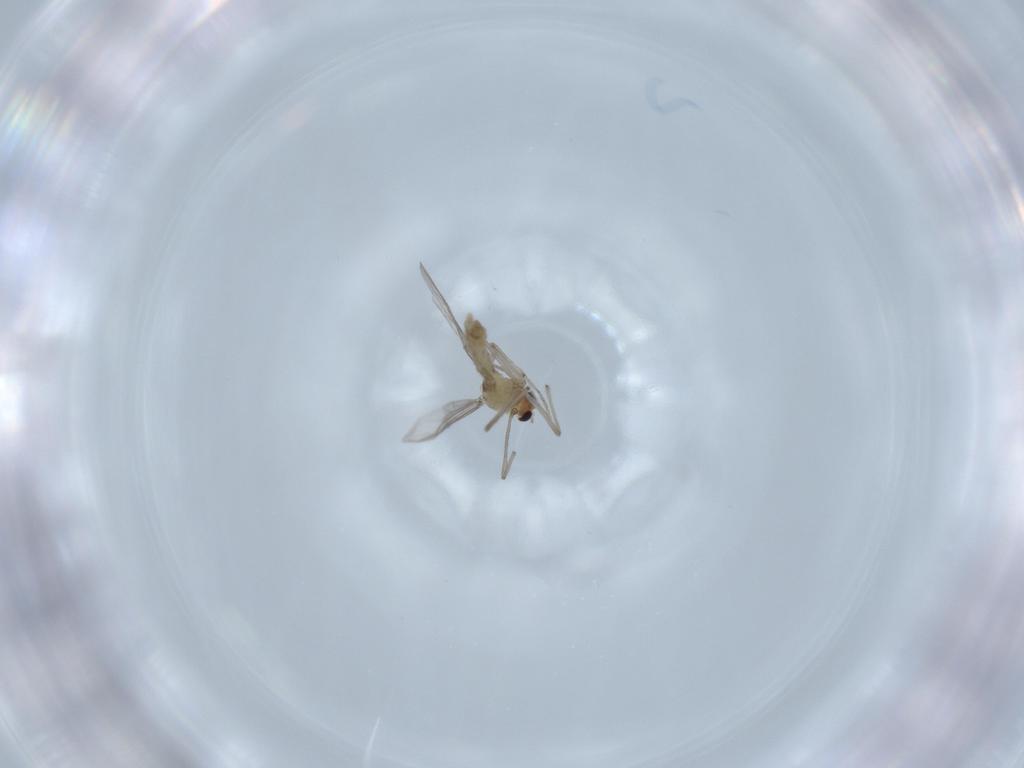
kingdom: Animalia
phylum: Arthropoda
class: Insecta
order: Diptera
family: Chironomidae
